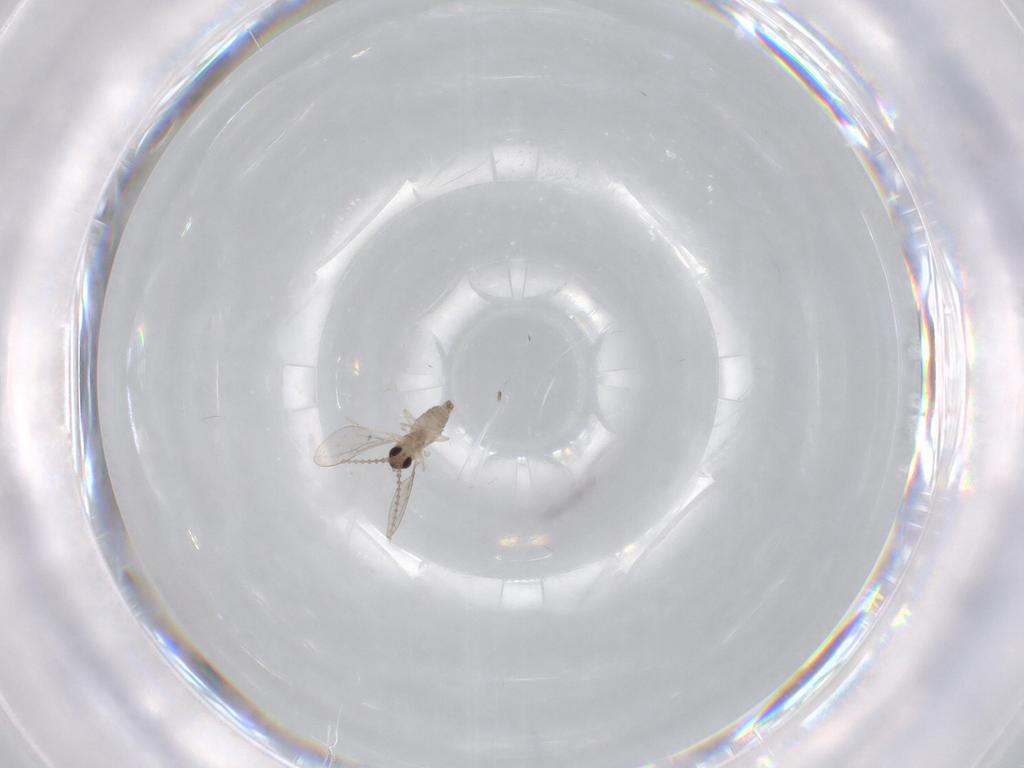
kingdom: Animalia
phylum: Arthropoda
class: Insecta
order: Diptera
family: Cecidomyiidae
